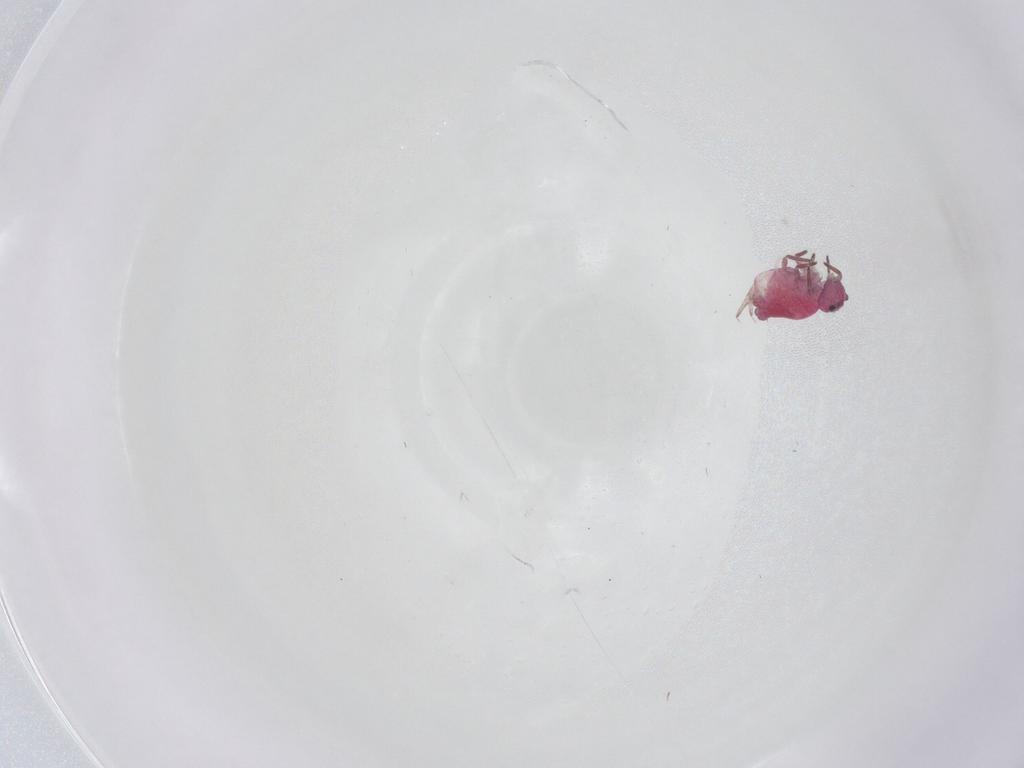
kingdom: Animalia
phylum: Arthropoda
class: Collembola
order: Symphypleona
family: Sminthuridae
